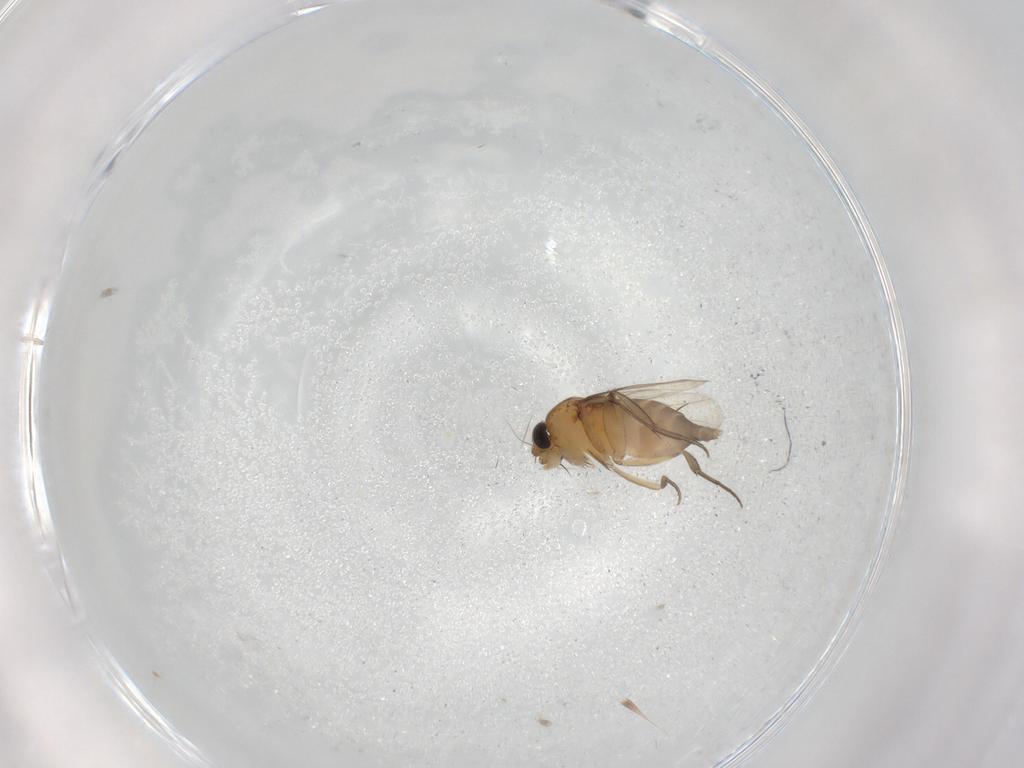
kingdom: Animalia
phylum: Arthropoda
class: Insecta
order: Diptera
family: Phoridae
